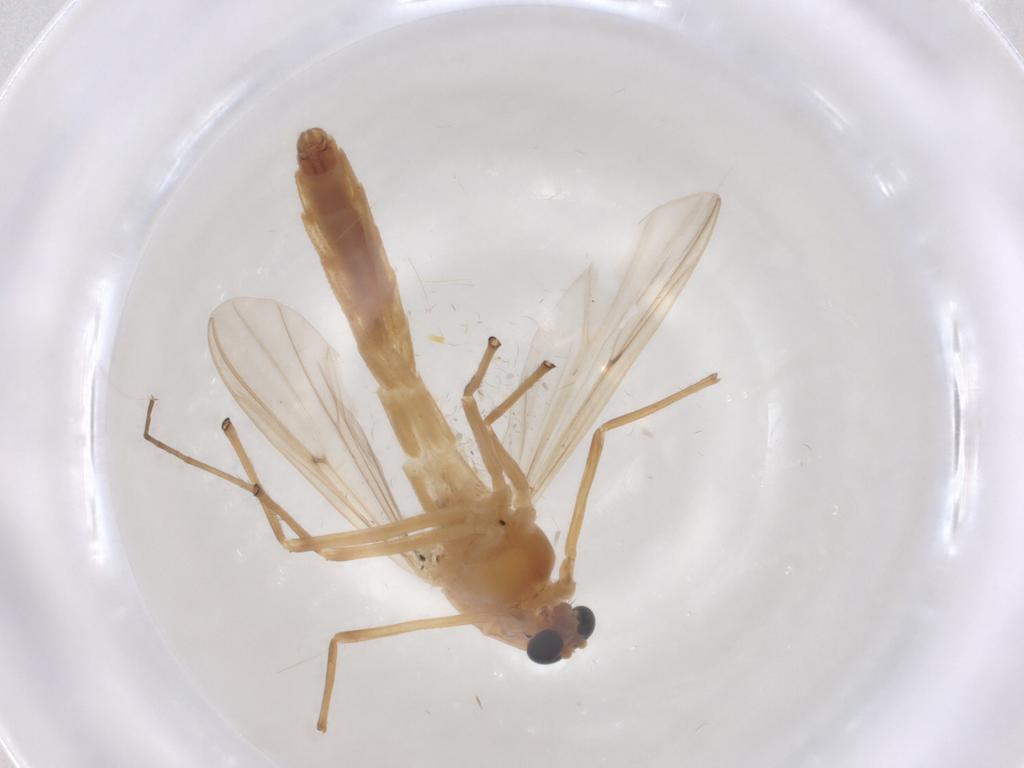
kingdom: Animalia
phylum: Arthropoda
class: Insecta
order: Diptera
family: Chironomidae
